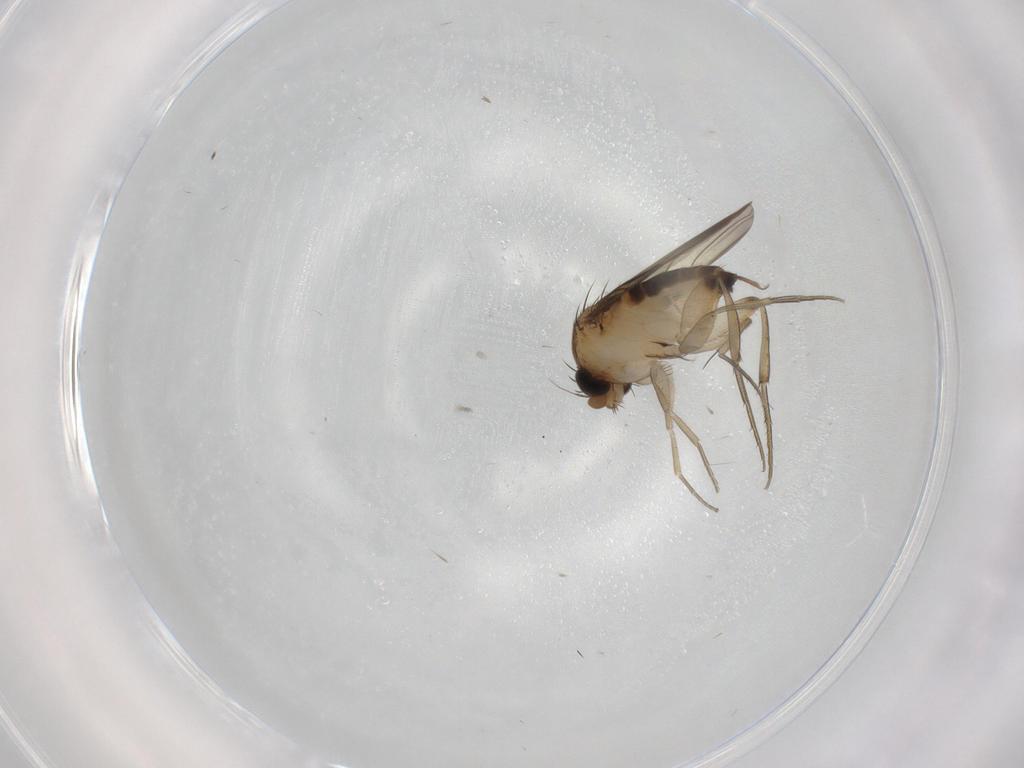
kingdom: Animalia
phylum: Arthropoda
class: Insecta
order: Diptera
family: Phoridae
